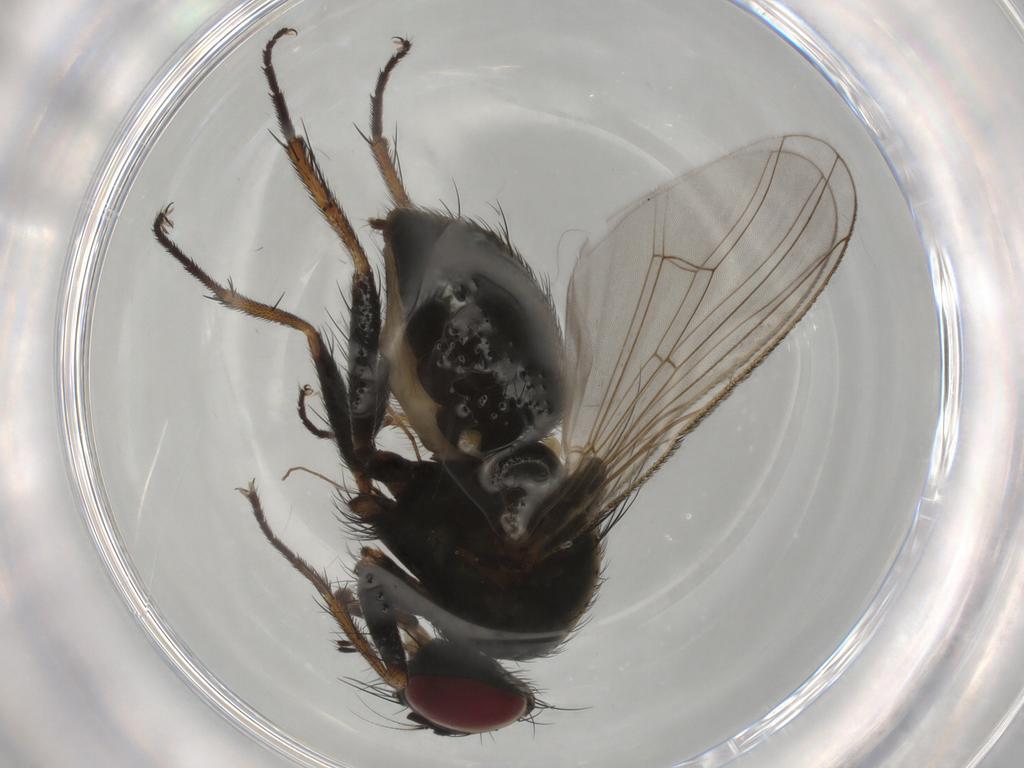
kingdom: Animalia
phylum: Arthropoda
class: Insecta
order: Diptera
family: Muscidae
